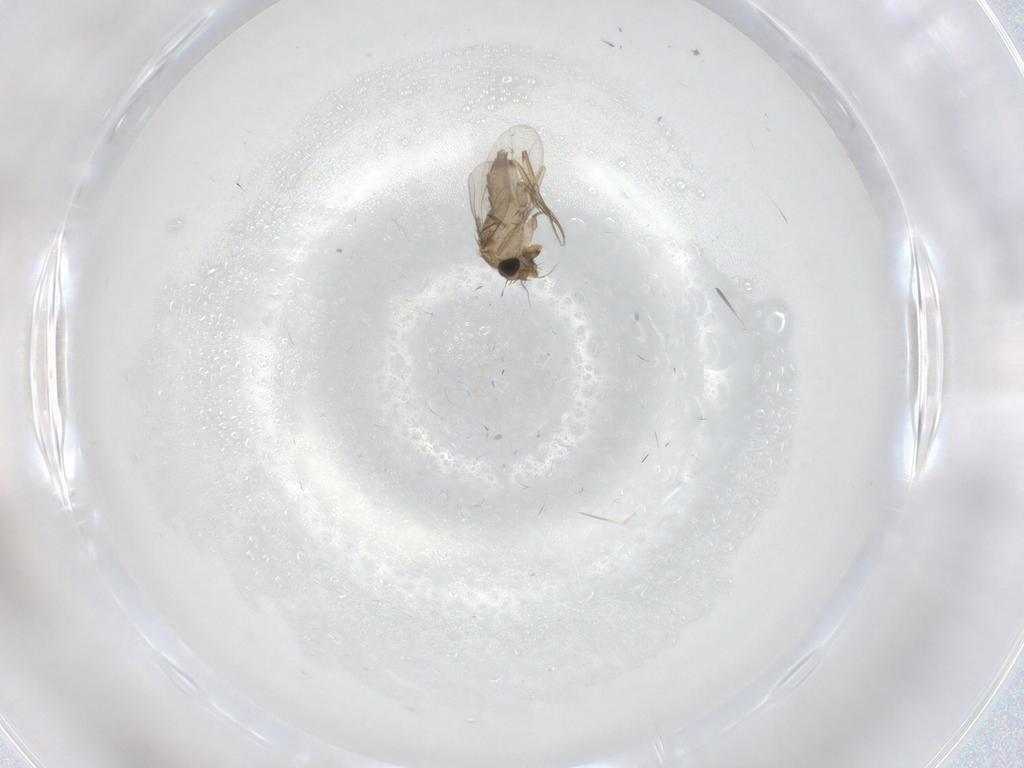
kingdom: Animalia
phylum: Arthropoda
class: Insecta
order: Diptera
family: Phoridae
